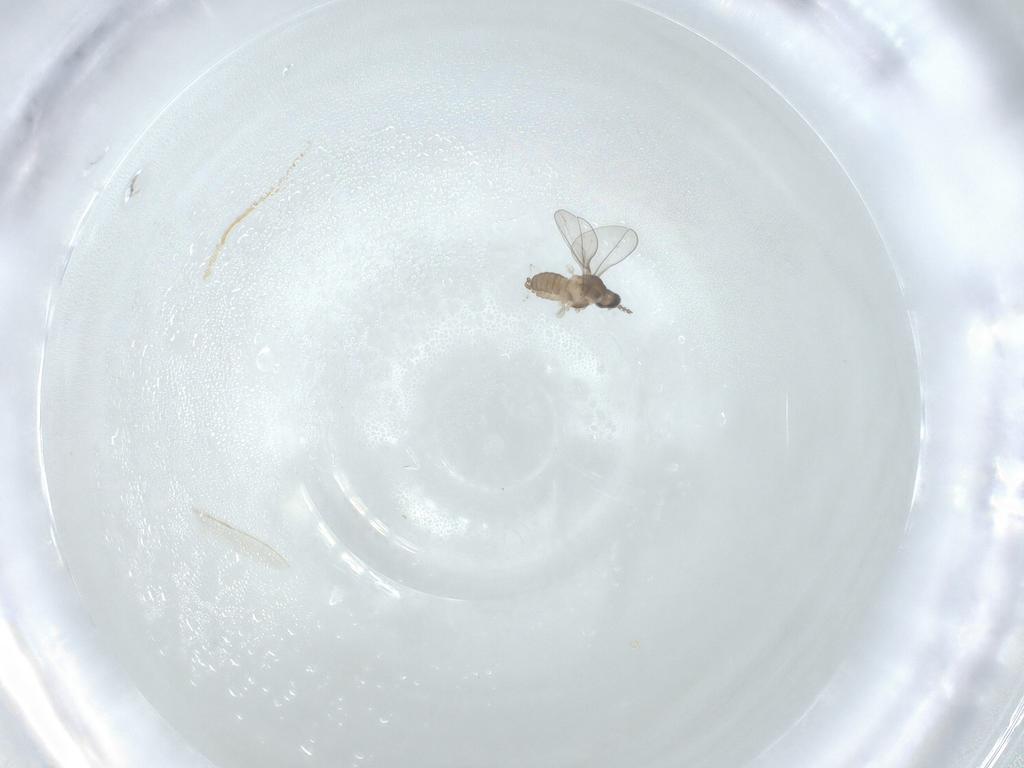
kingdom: Animalia
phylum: Arthropoda
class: Insecta
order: Diptera
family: Cecidomyiidae
